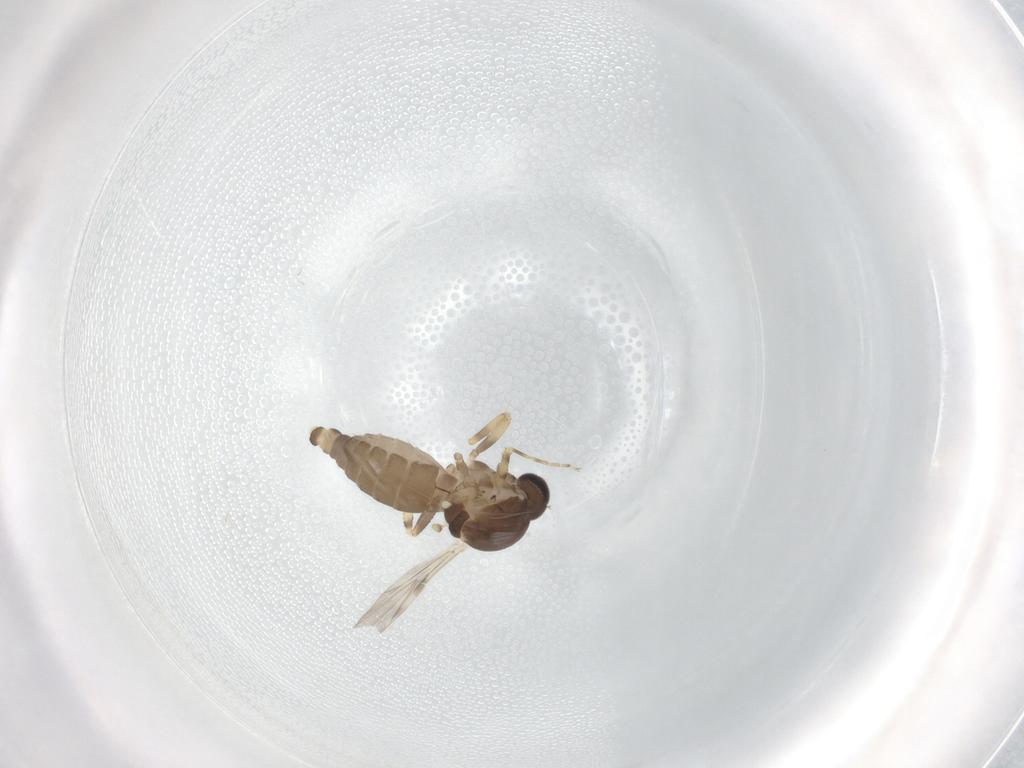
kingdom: Animalia
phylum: Arthropoda
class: Insecta
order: Diptera
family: Ceratopogonidae
